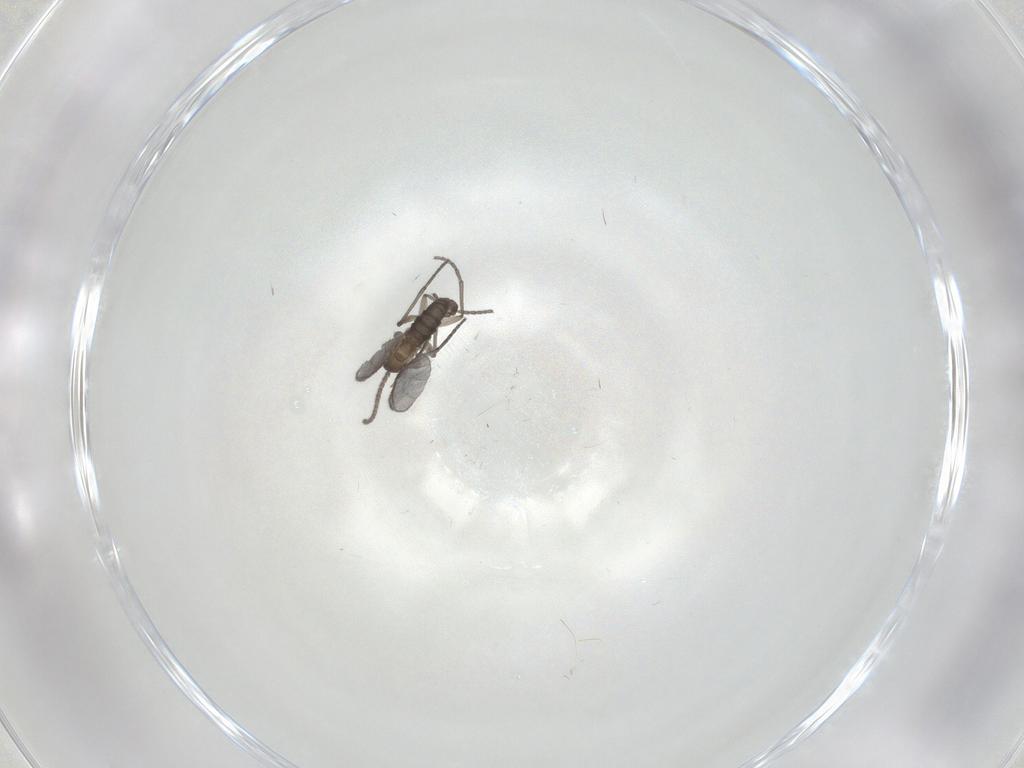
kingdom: Animalia
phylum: Arthropoda
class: Insecta
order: Diptera
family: Sciaridae
